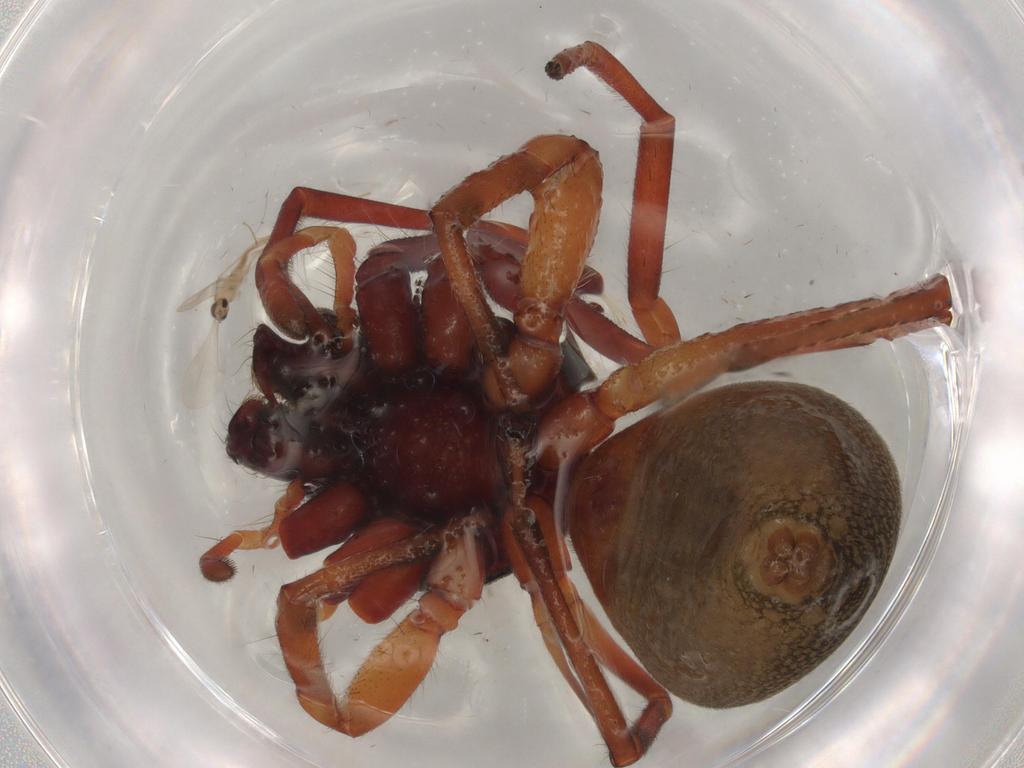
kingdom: Animalia
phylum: Arthropoda
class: Arachnida
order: Araneae
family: Trachelidae
